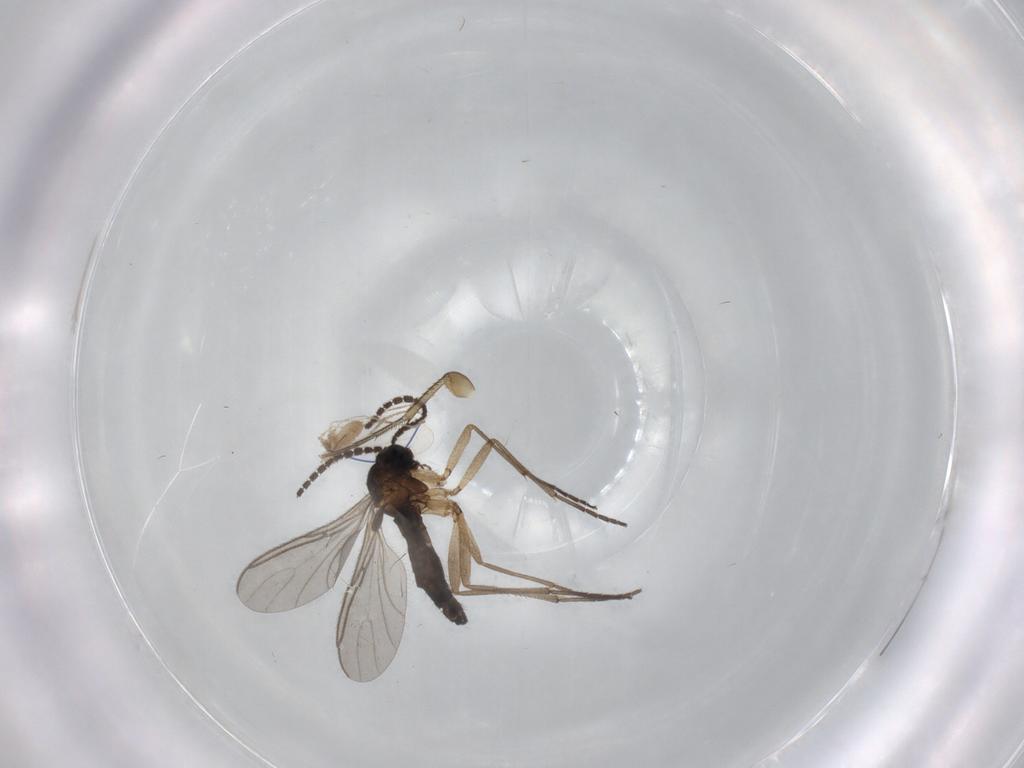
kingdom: Animalia
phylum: Arthropoda
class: Insecta
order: Diptera
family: Sciaridae
